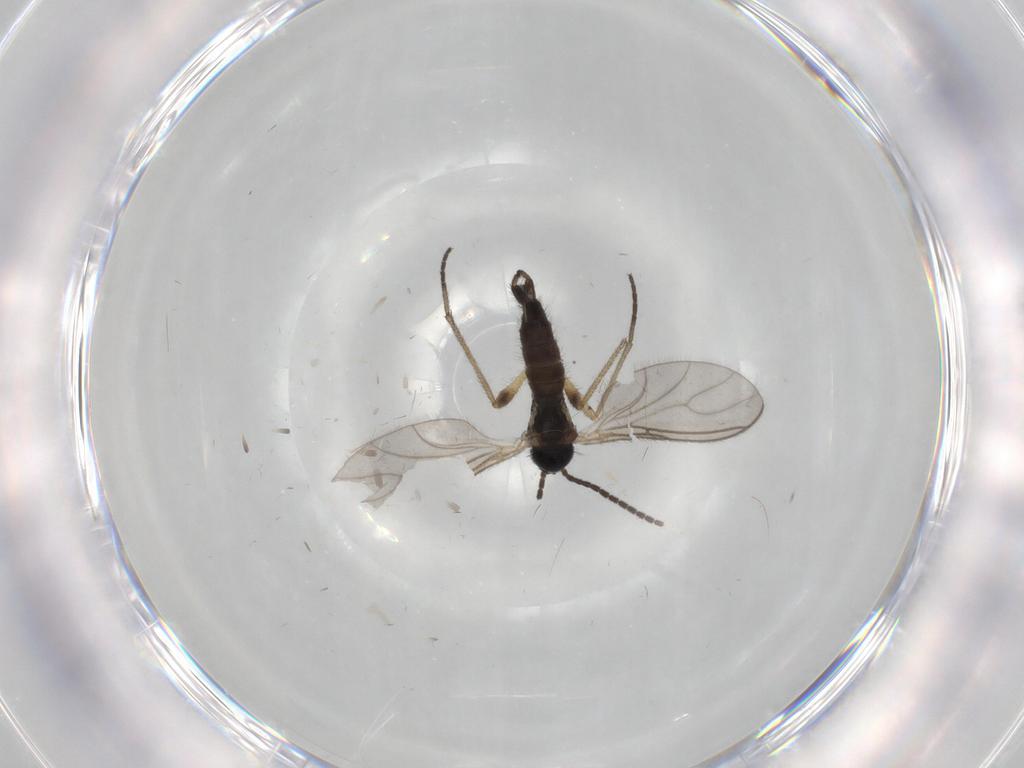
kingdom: Animalia
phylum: Arthropoda
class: Insecta
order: Diptera
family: Sciaridae
